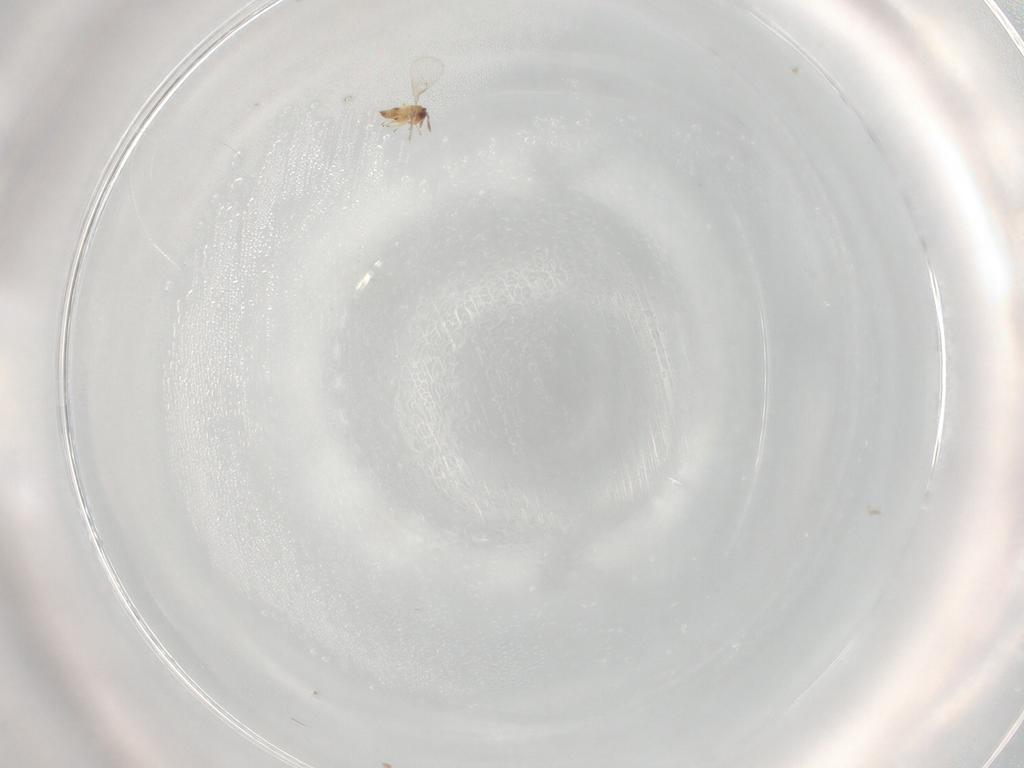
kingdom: Animalia
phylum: Arthropoda
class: Insecta
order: Hymenoptera
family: Trichogrammatidae
